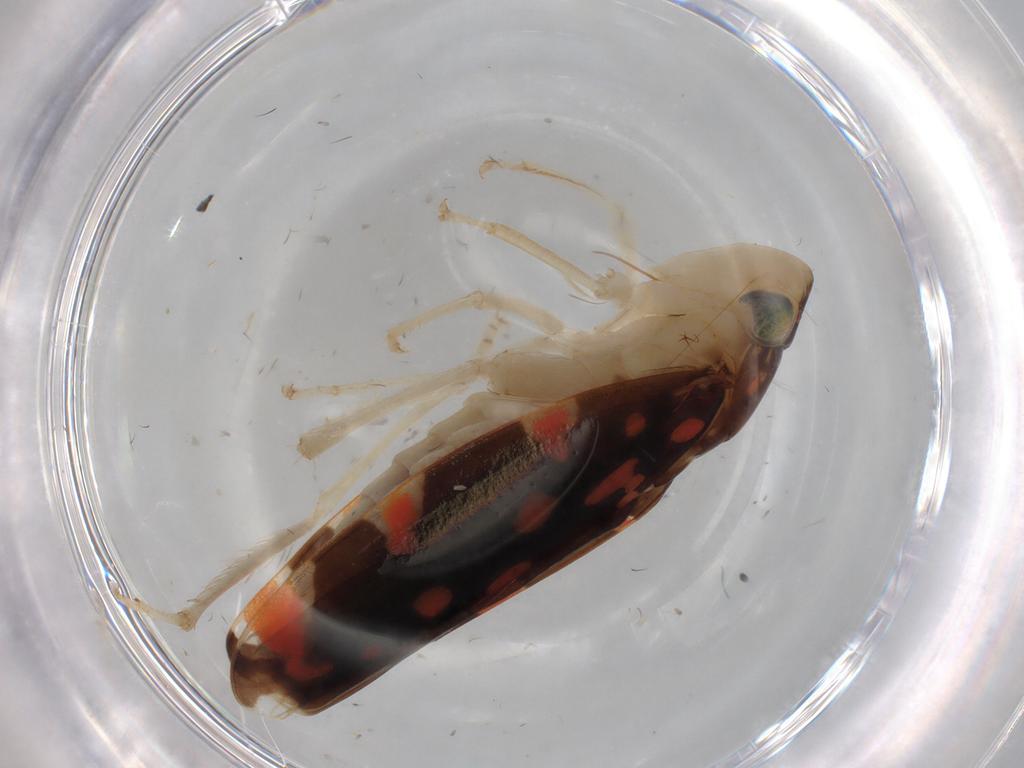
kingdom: Animalia
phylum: Arthropoda
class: Insecta
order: Hemiptera
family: Cicadellidae
